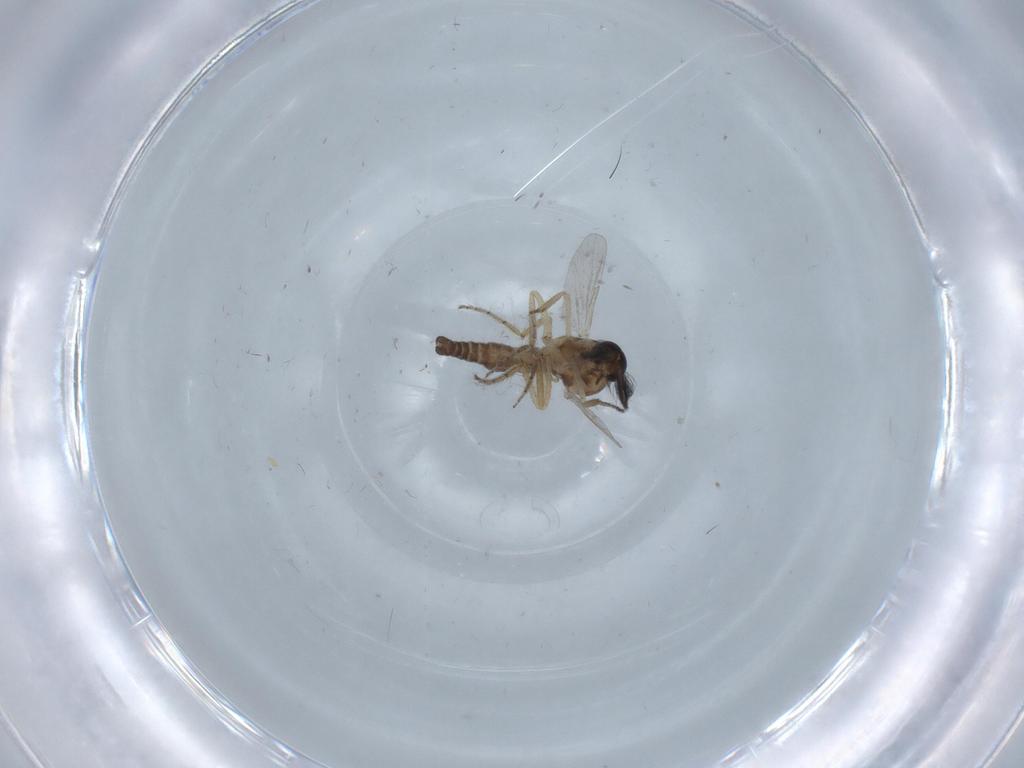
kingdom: Animalia
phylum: Arthropoda
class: Insecta
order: Diptera
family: Ceratopogonidae
